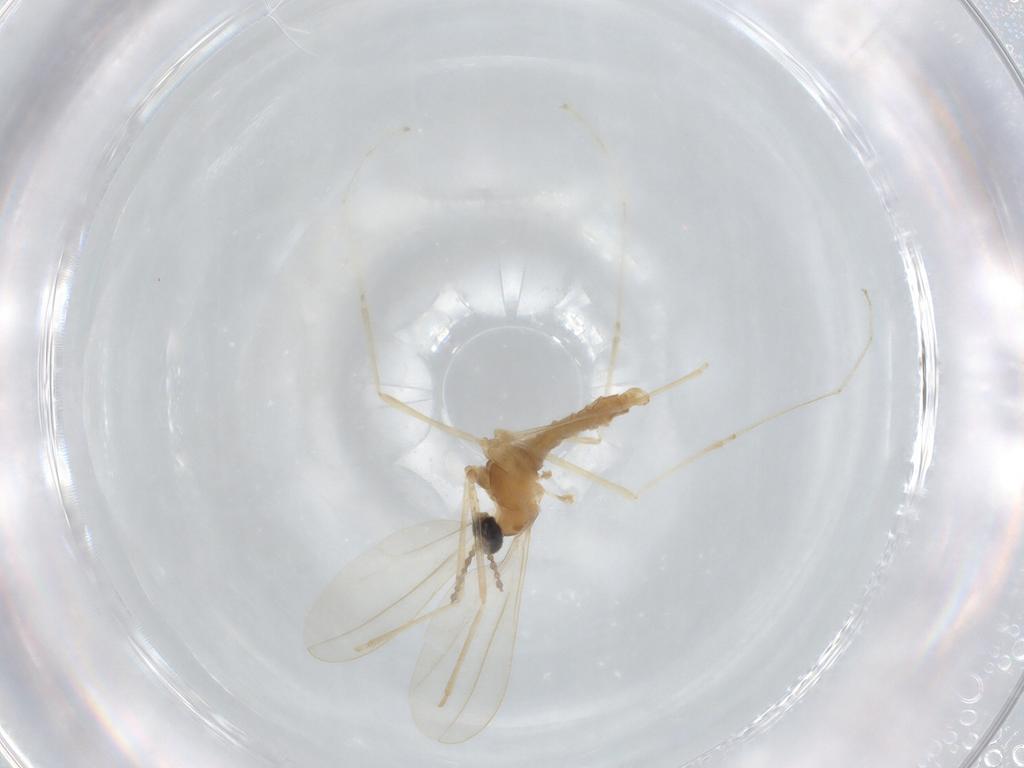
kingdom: Animalia
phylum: Arthropoda
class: Insecta
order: Diptera
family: Cecidomyiidae
